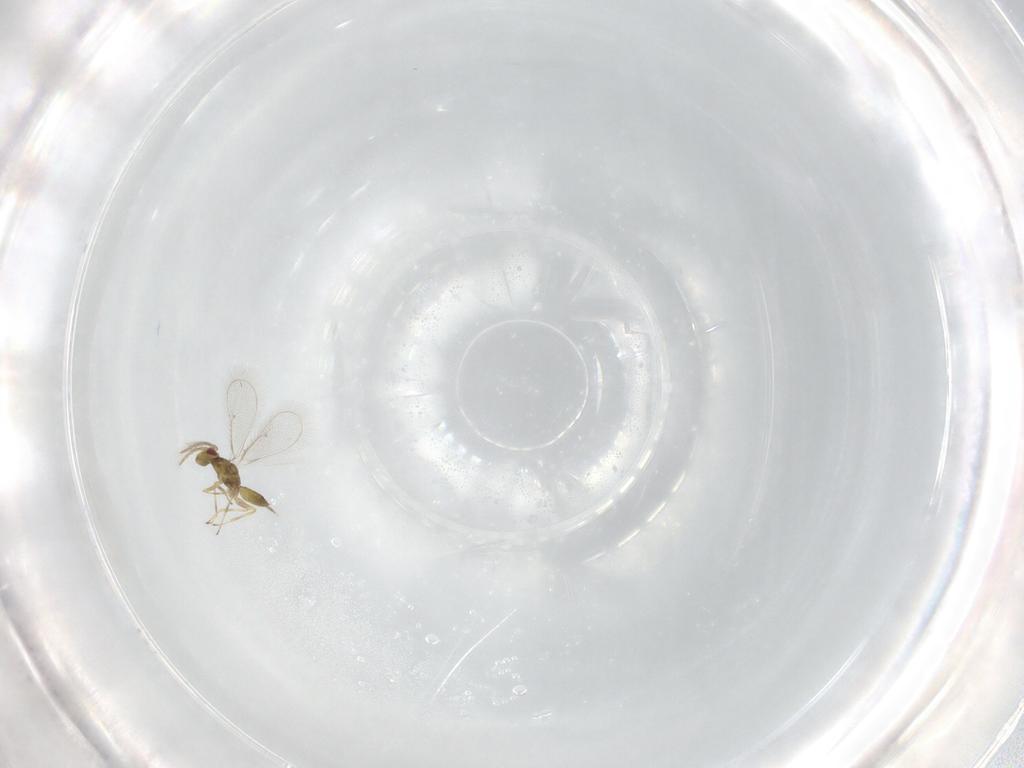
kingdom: Animalia
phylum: Arthropoda
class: Insecta
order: Hymenoptera
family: Eulophidae
